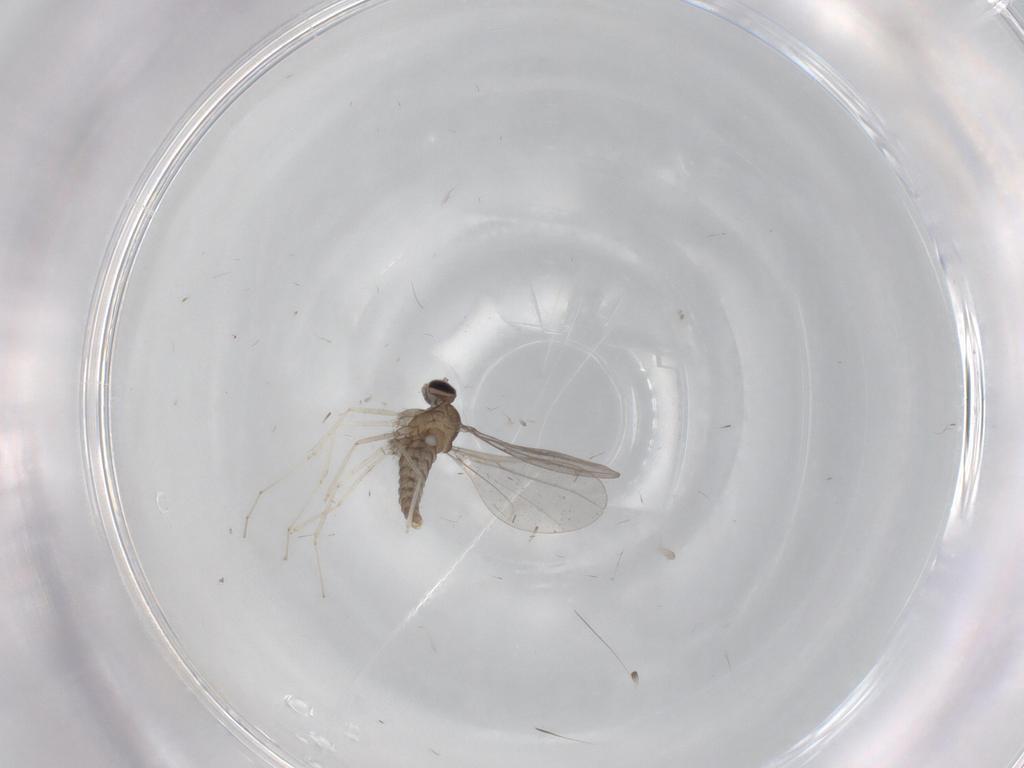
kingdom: Animalia
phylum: Arthropoda
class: Insecta
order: Diptera
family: Cecidomyiidae
